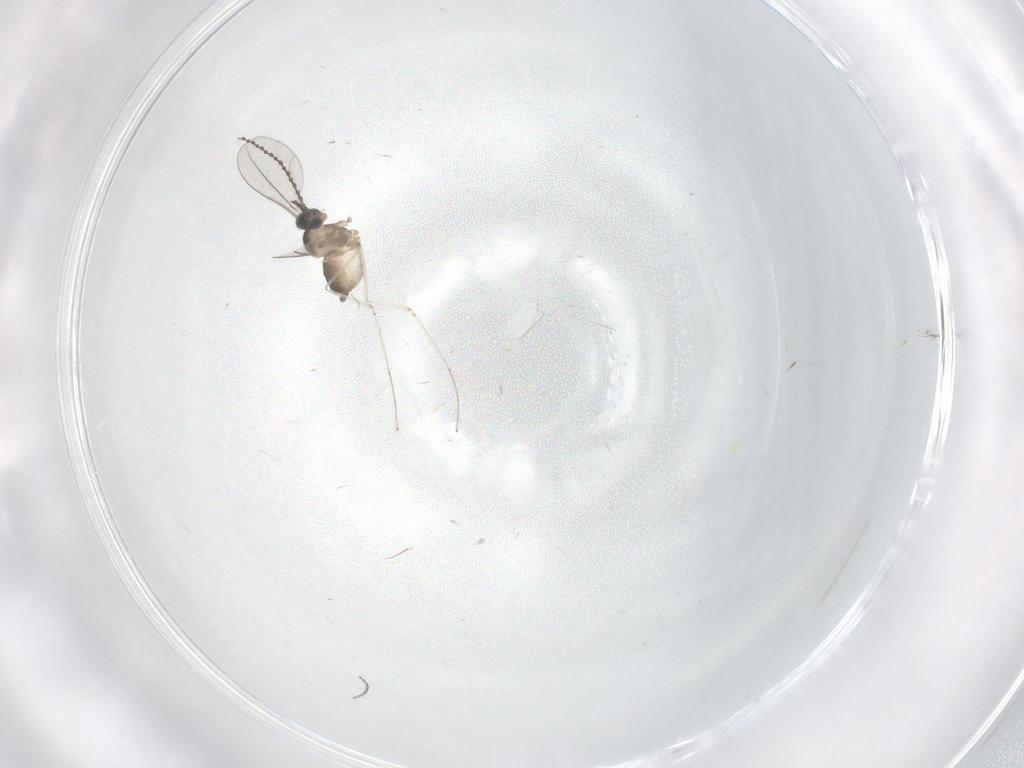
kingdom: Animalia
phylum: Arthropoda
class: Insecta
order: Diptera
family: Cecidomyiidae
